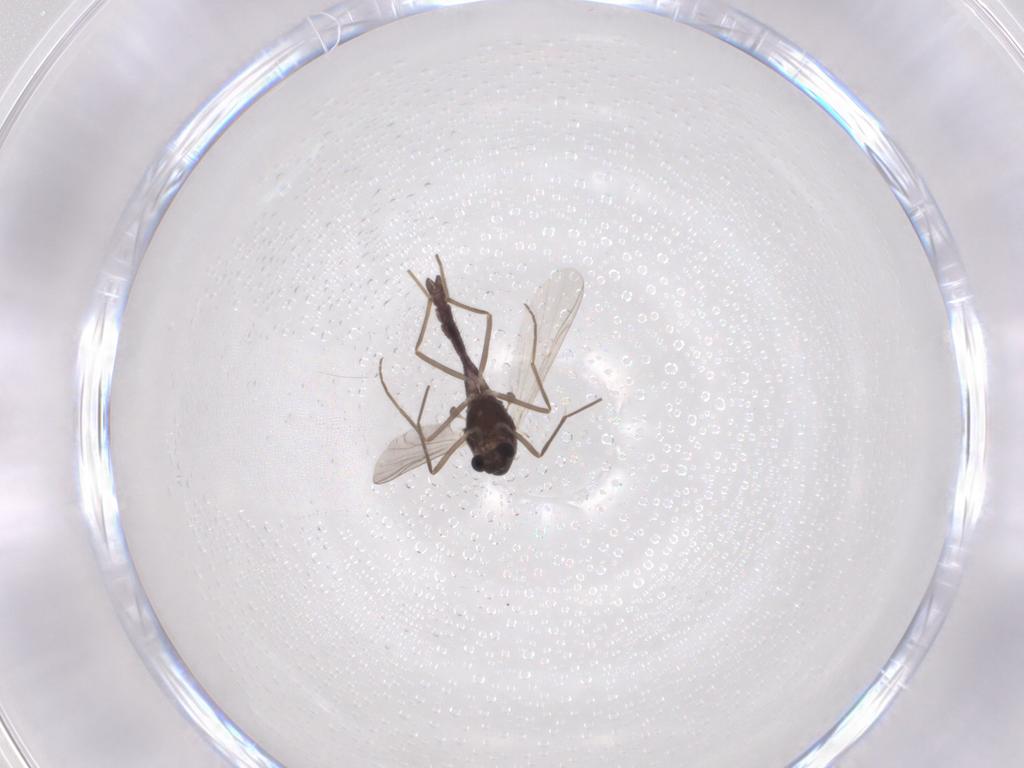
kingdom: Animalia
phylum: Arthropoda
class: Insecta
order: Diptera
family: Chironomidae
